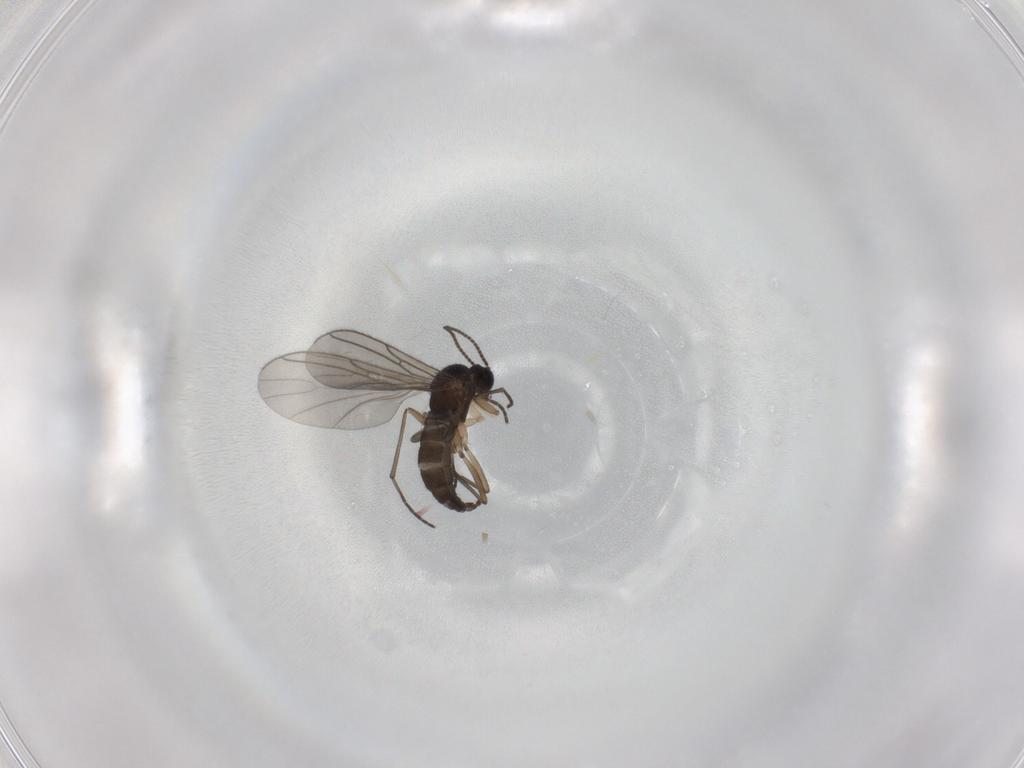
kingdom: Animalia
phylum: Arthropoda
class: Insecta
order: Diptera
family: Sciaridae
